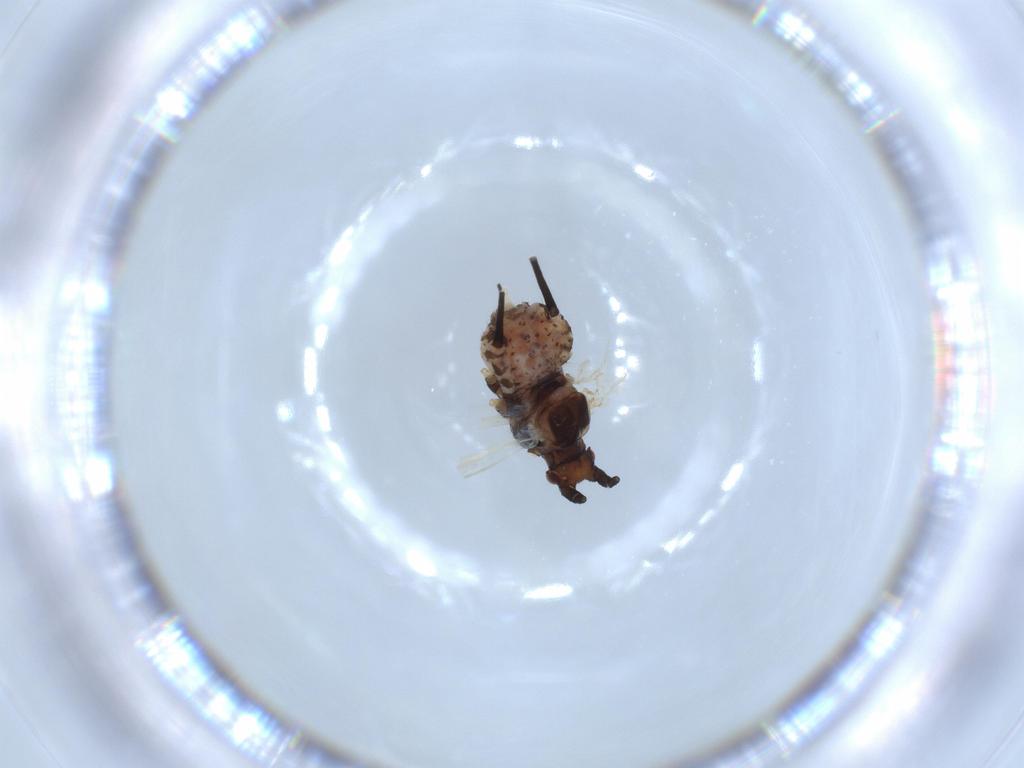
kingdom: Animalia
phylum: Arthropoda
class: Insecta
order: Hemiptera
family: Aphididae
